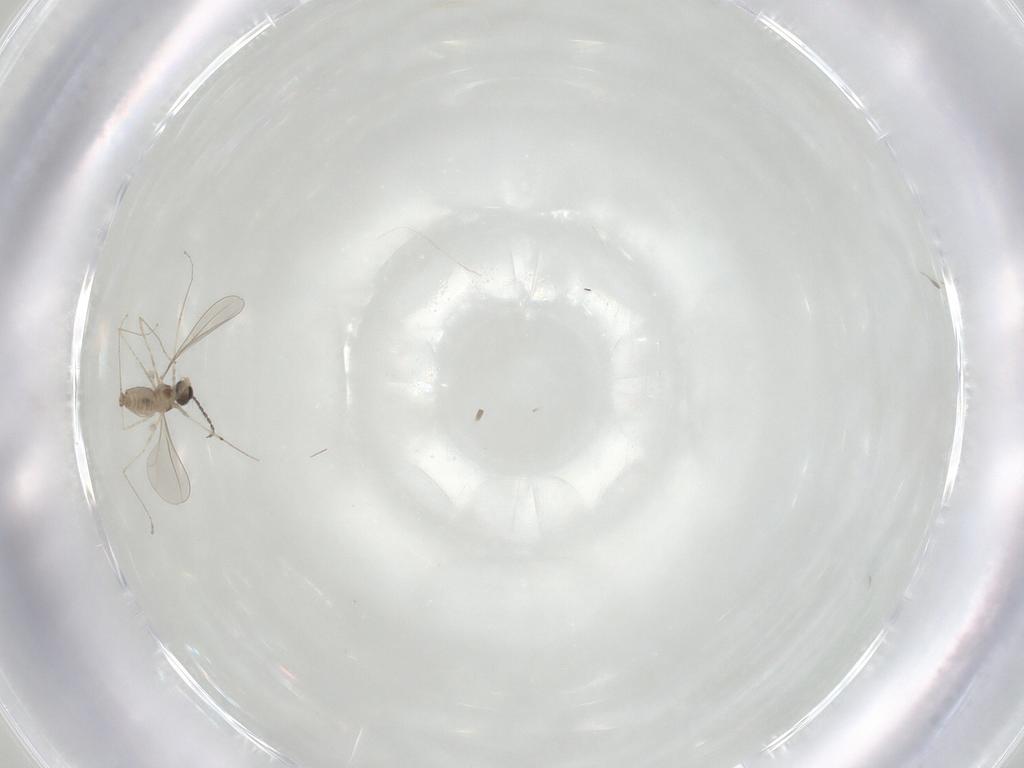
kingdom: Animalia
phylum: Arthropoda
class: Insecta
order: Diptera
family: Cecidomyiidae
